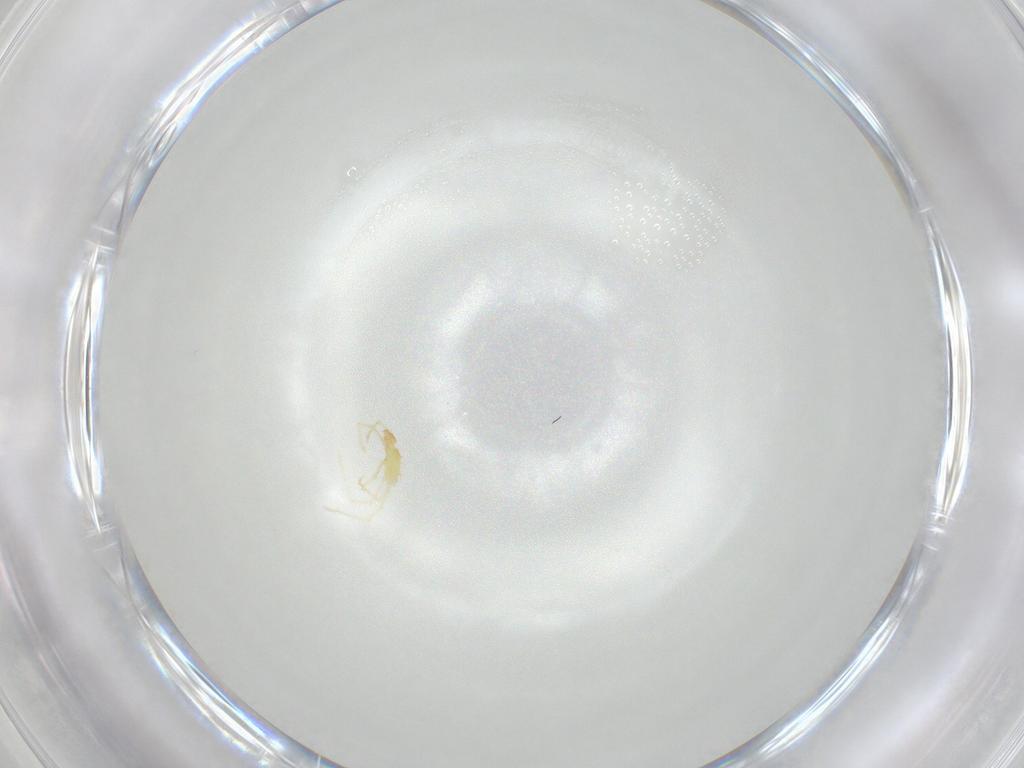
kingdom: Animalia
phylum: Arthropoda
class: Arachnida
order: Trombidiformes
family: Erythraeidae
